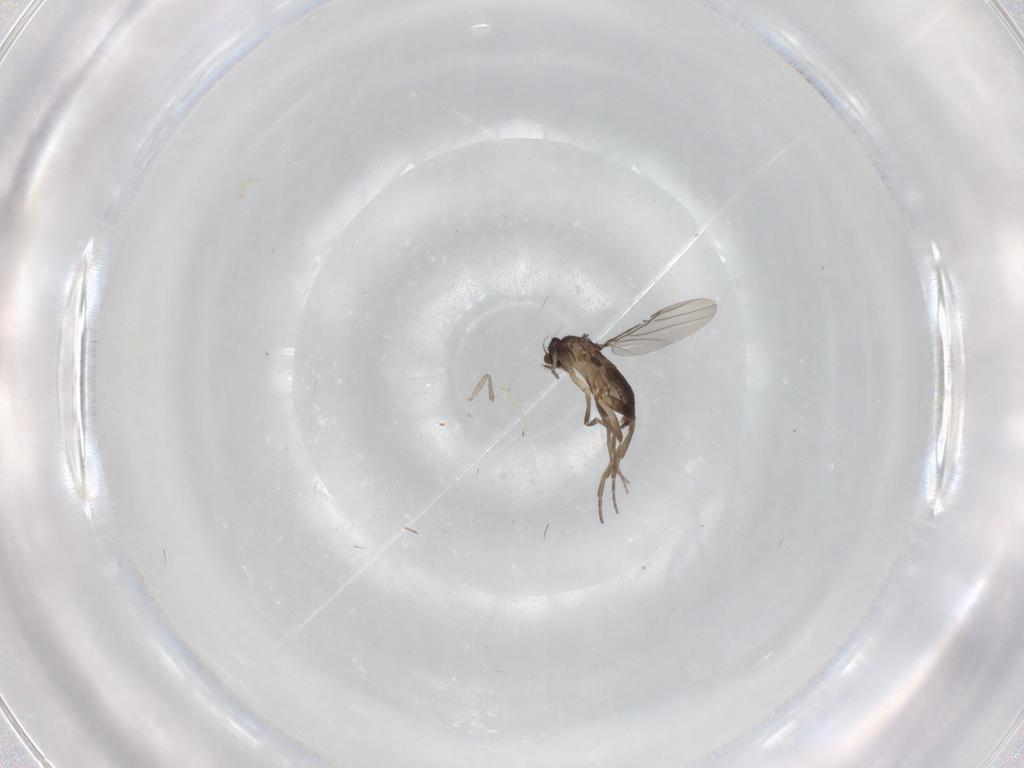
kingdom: Animalia
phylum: Arthropoda
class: Insecta
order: Diptera
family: Psychodidae
